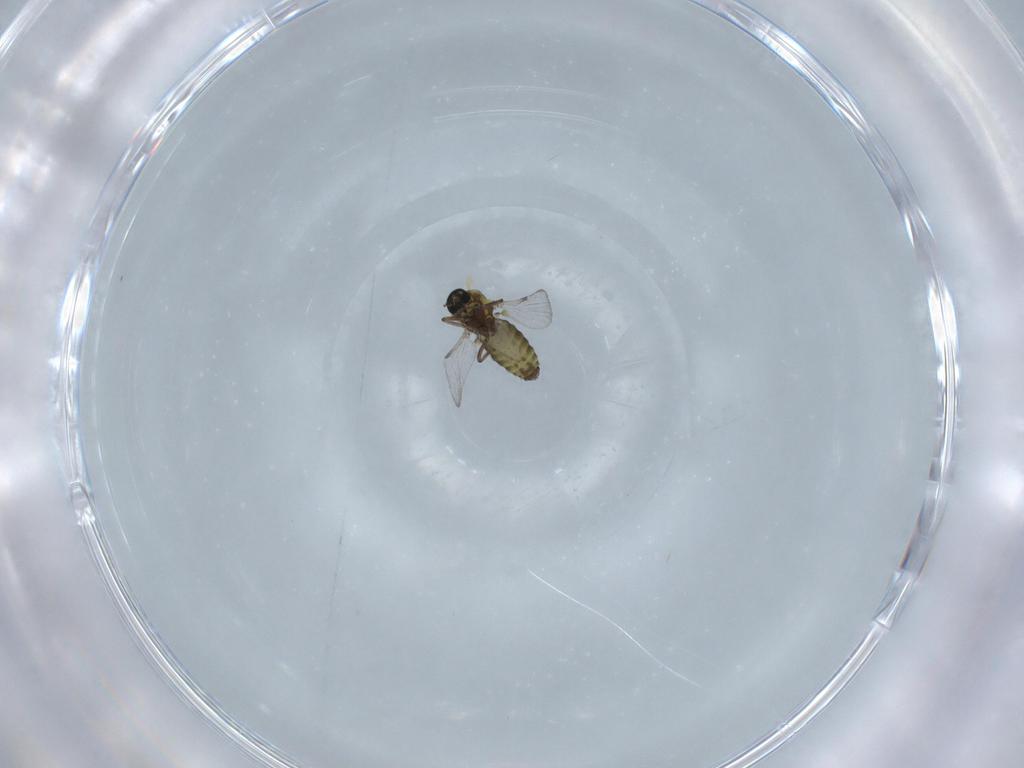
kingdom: Animalia
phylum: Arthropoda
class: Insecta
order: Diptera
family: Ceratopogonidae
